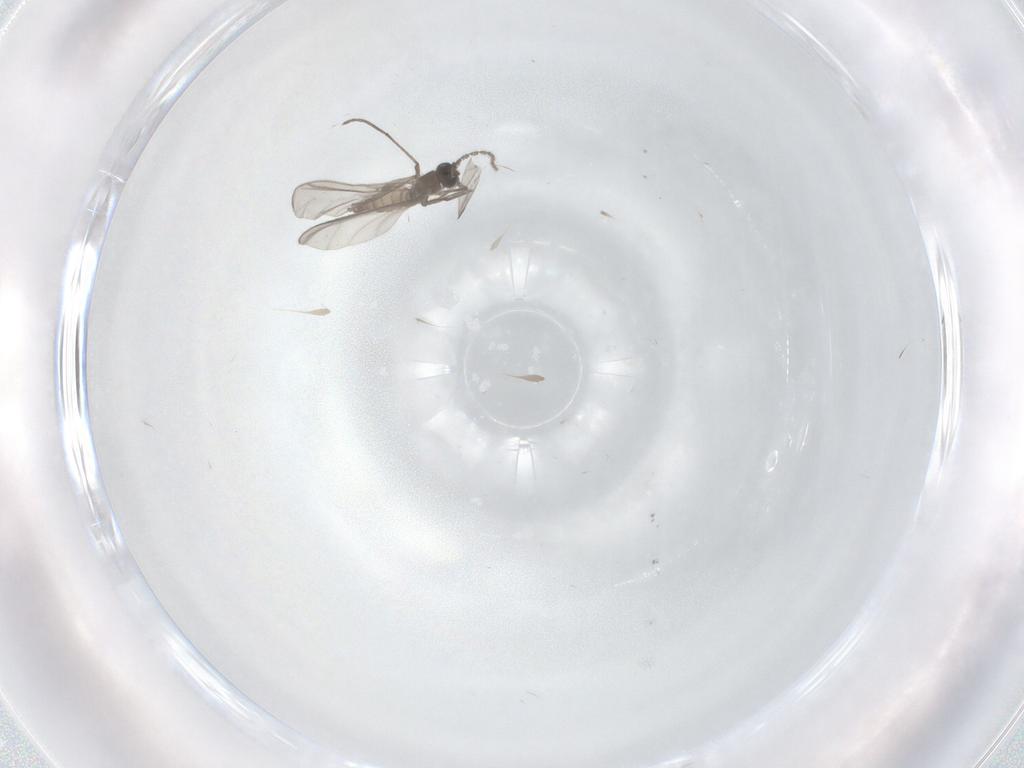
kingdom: Animalia
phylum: Arthropoda
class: Insecta
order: Diptera
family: Sciaridae
